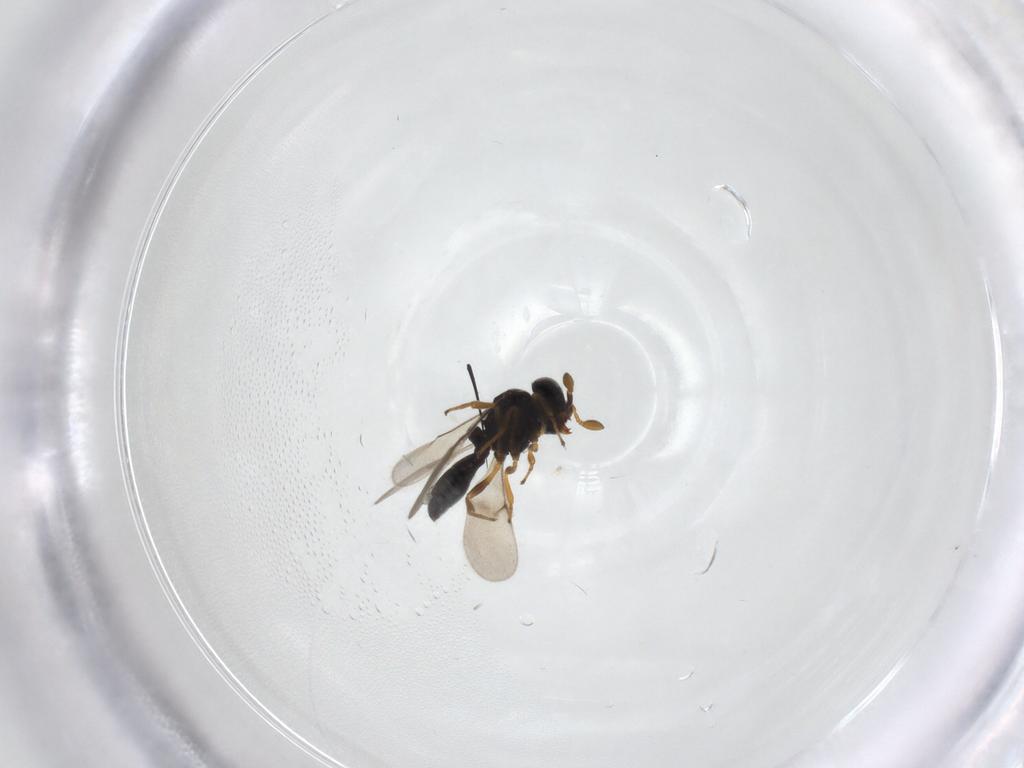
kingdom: Animalia
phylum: Arthropoda
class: Insecta
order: Hymenoptera
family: Scelionidae
